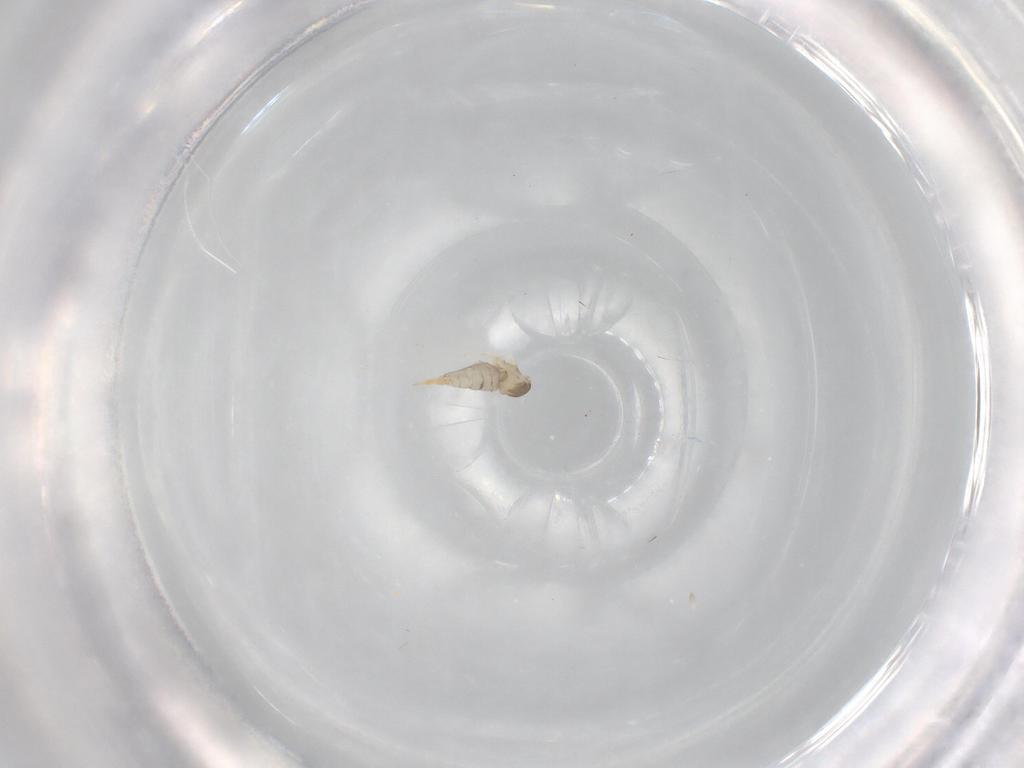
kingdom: Animalia
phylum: Arthropoda
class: Insecta
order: Diptera
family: Cecidomyiidae
